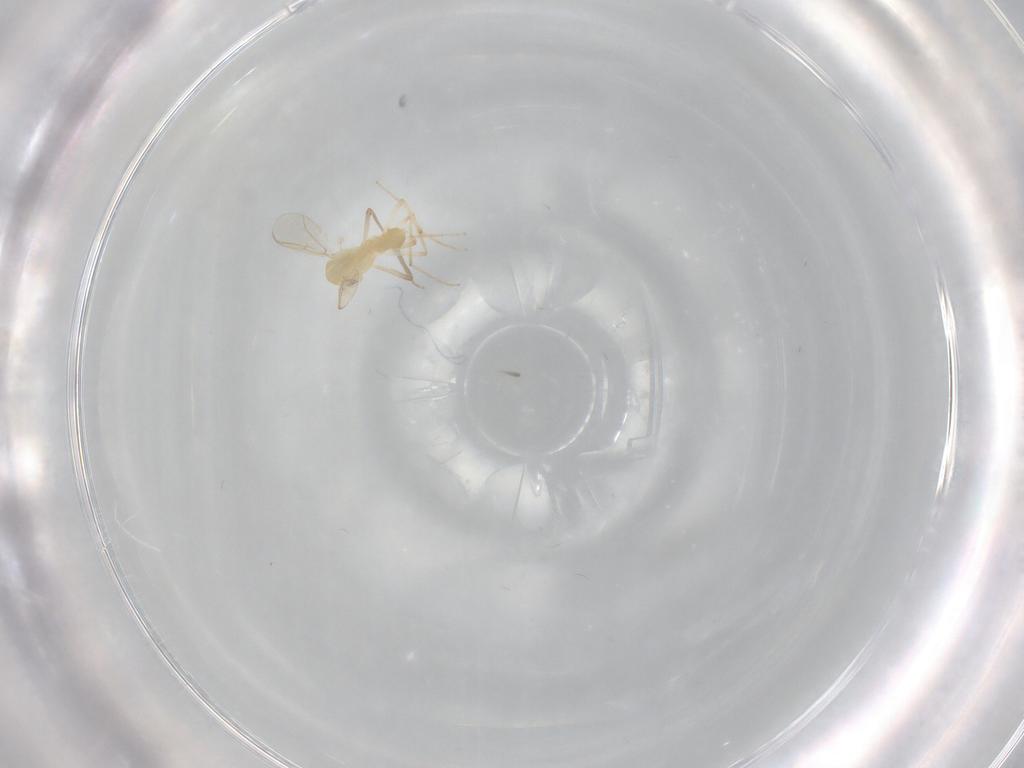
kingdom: Animalia
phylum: Arthropoda
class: Insecta
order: Diptera
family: Chironomidae
